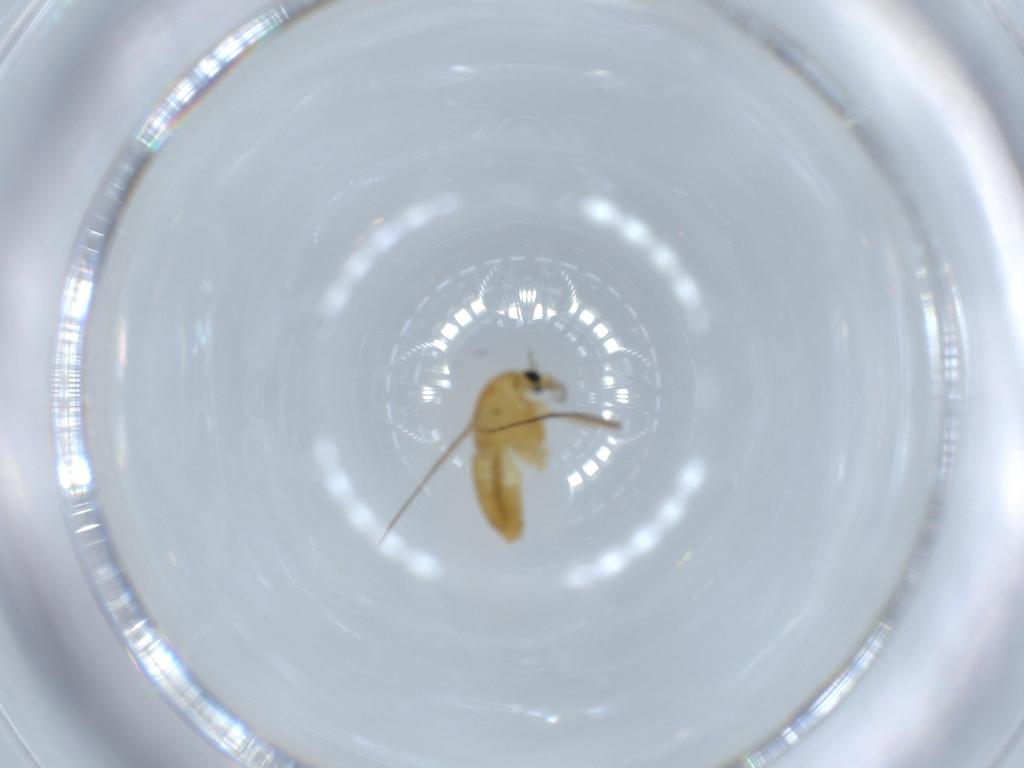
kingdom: Animalia
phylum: Arthropoda
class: Insecta
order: Diptera
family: Chironomidae
